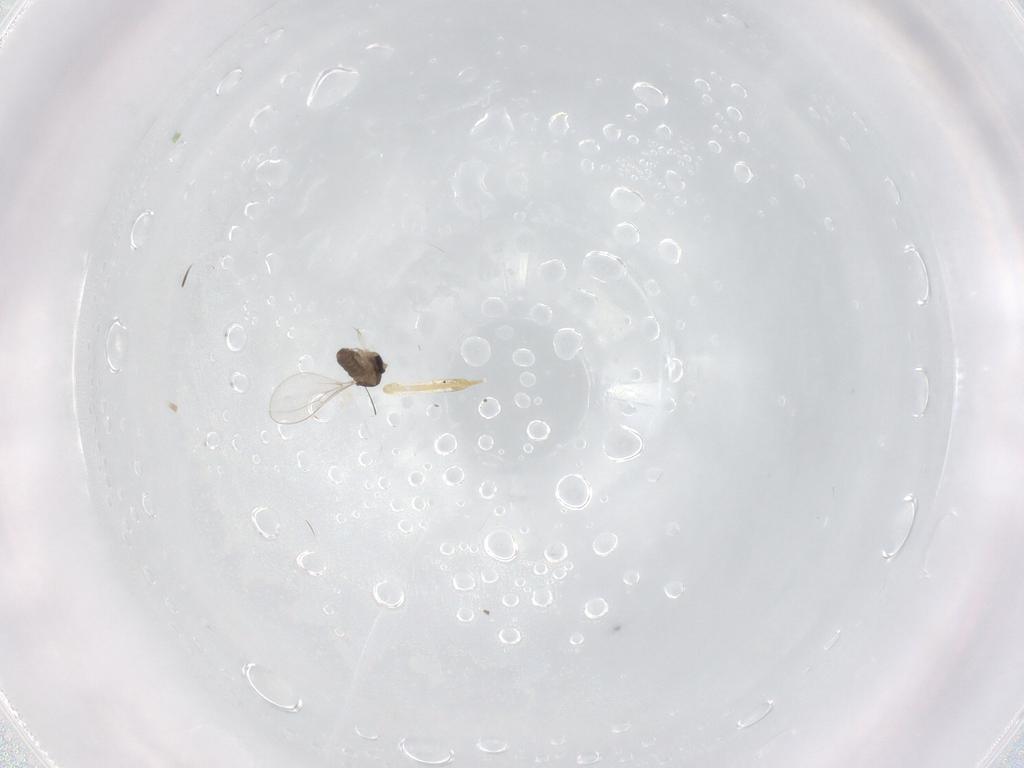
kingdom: Animalia
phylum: Arthropoda
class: Insecta
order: Diptera
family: Cecidomyiidae
